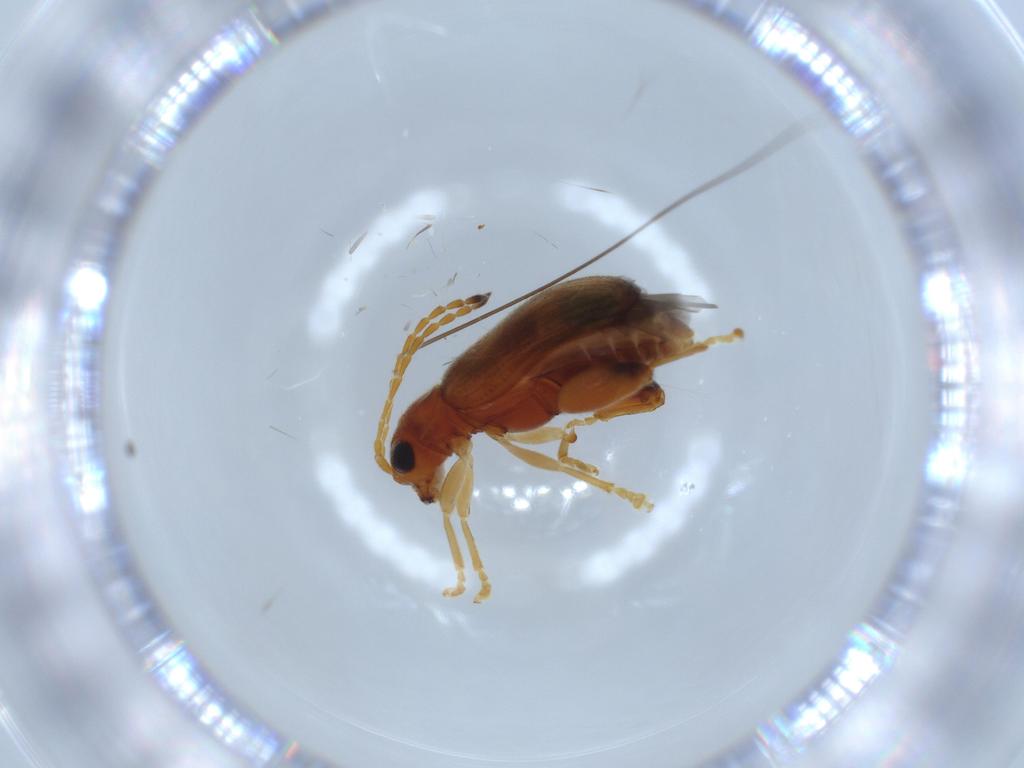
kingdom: Animalia
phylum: Arthropoda
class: Insecta
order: Coleoptera
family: Chrysomelidae
